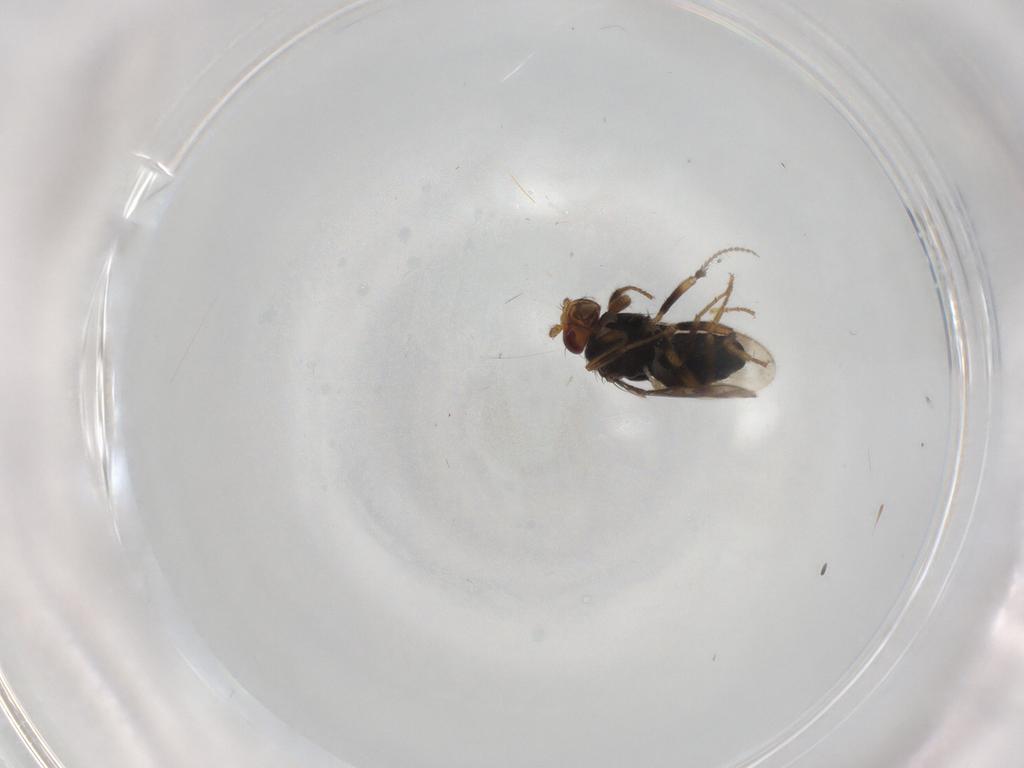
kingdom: Animalia
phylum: Arthropoda
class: Insecta
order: Diptera
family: Sphaeroceridae
